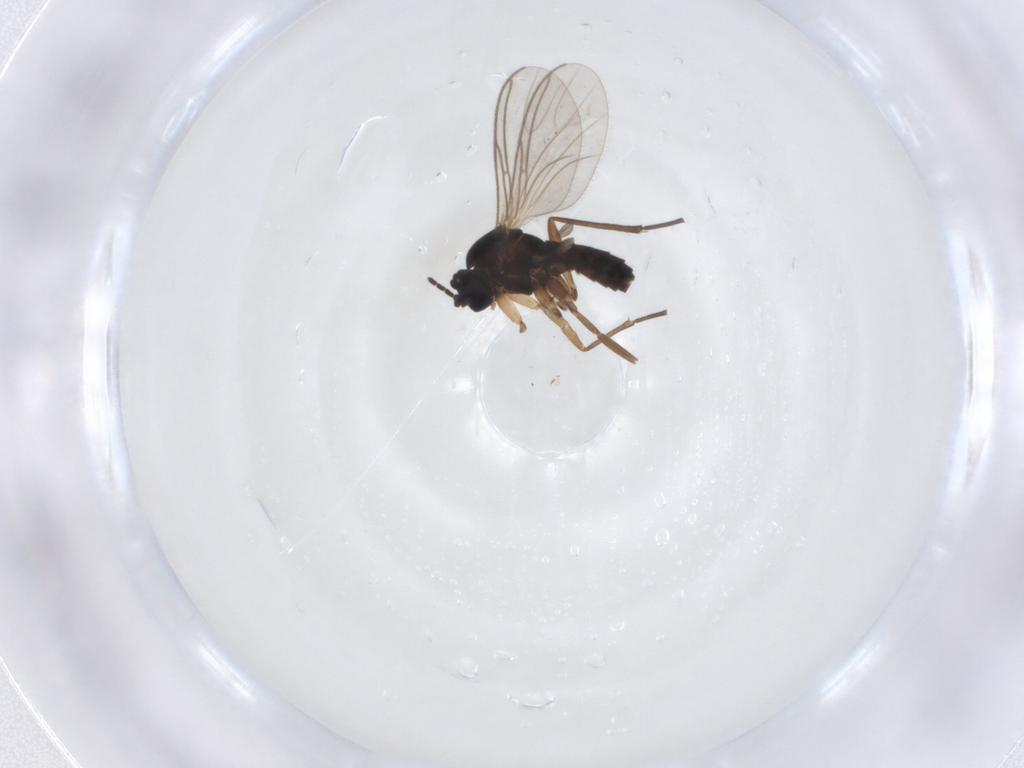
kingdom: Animalia
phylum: Arthropoda
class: Insecta
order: Diptera
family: Sciaridae
